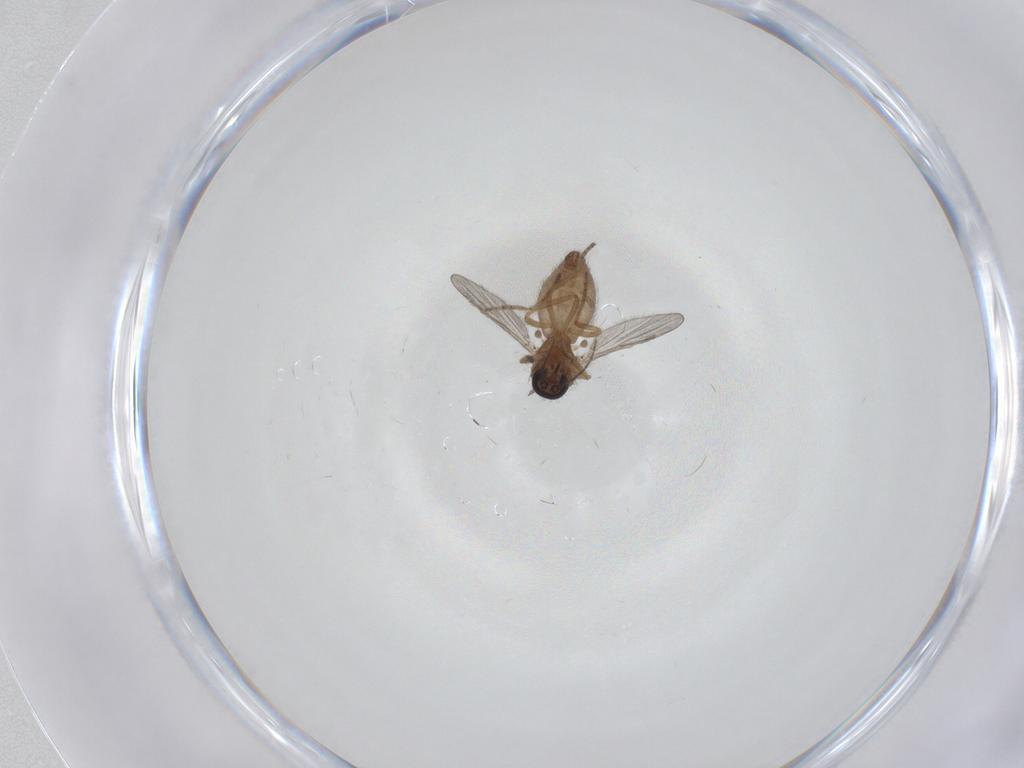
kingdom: Animalia
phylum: Arthropoda
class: Insecta
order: Diptera
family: Ceratopogonidae
